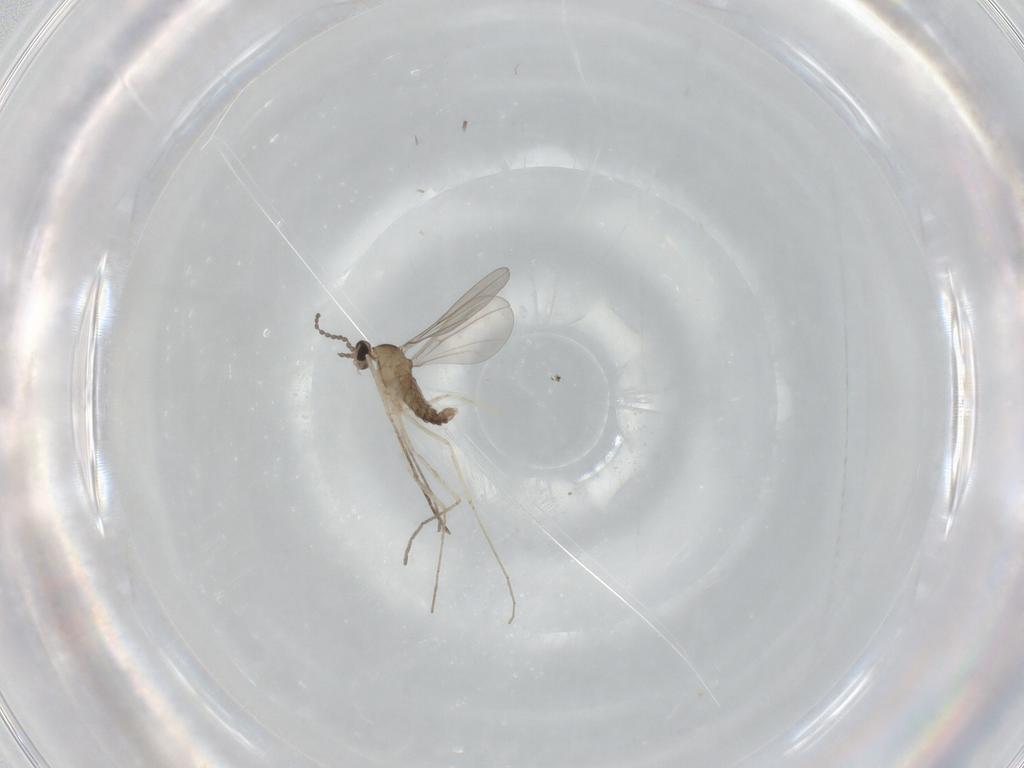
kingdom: Animalia
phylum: Arthropoda
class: Insecta
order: Diptera
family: Cecidomyiidae
